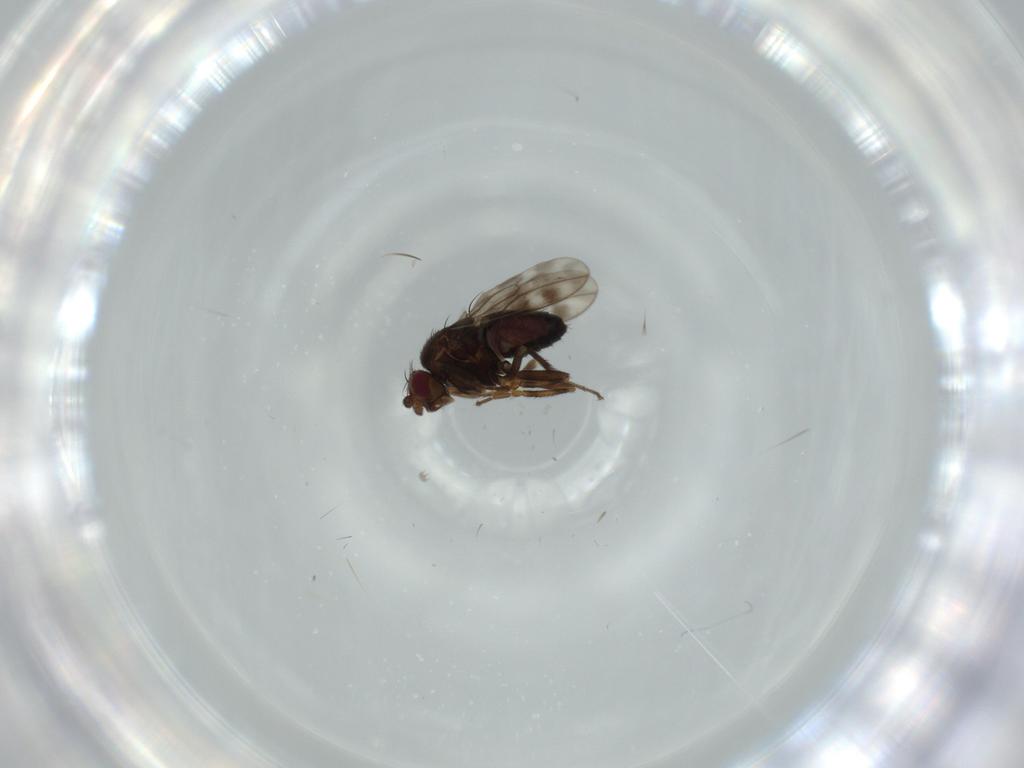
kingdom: Animalia
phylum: Arthropoda
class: Insecta
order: Diptera
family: Sphaeroceridae
